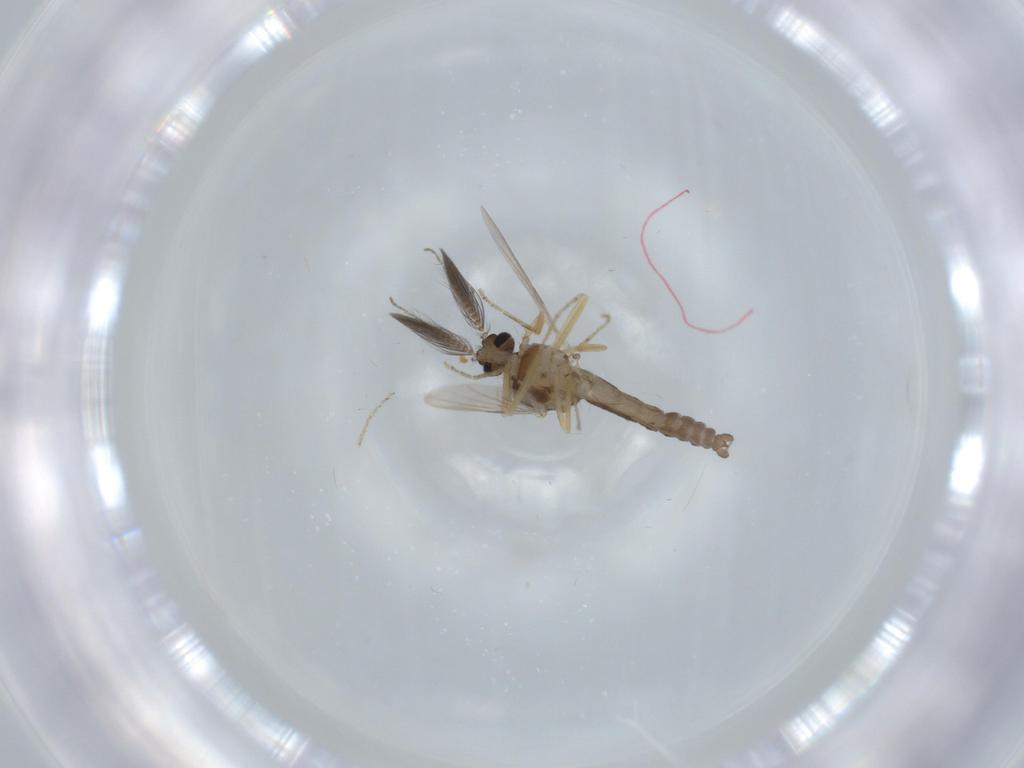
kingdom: Animalia
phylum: Arthropoda
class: Insecta
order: Diptera
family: Ceratopogonidae
